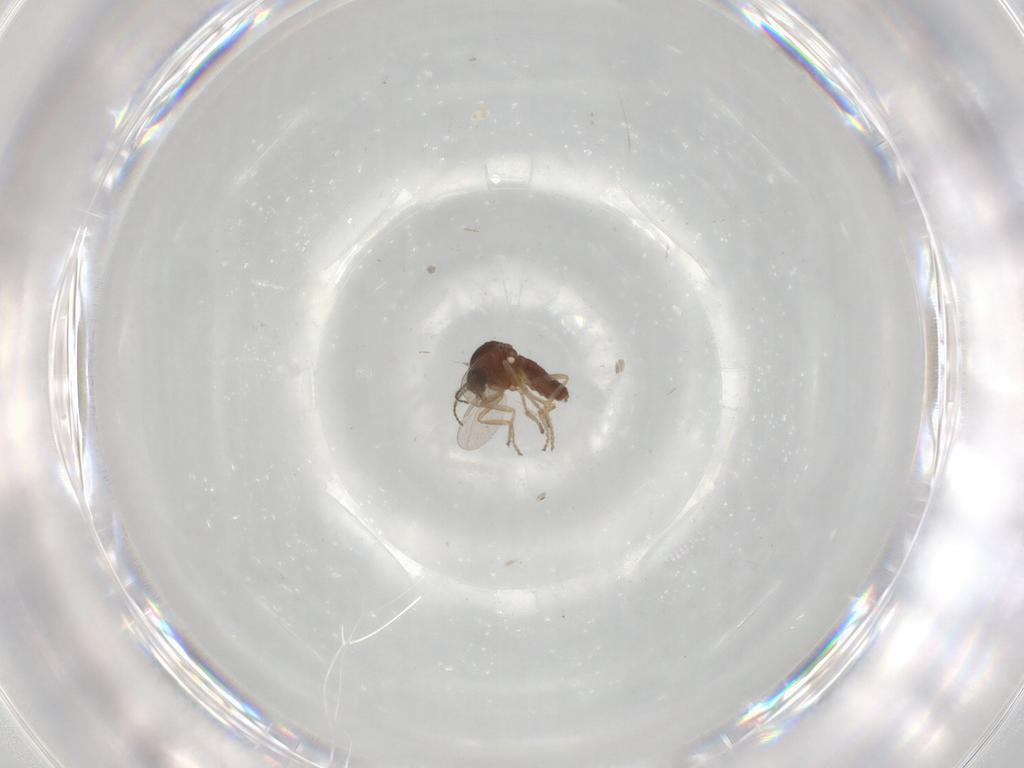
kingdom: Animalia
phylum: Arthropoda
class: Insecta
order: Diptera
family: Ceratopogonidae
